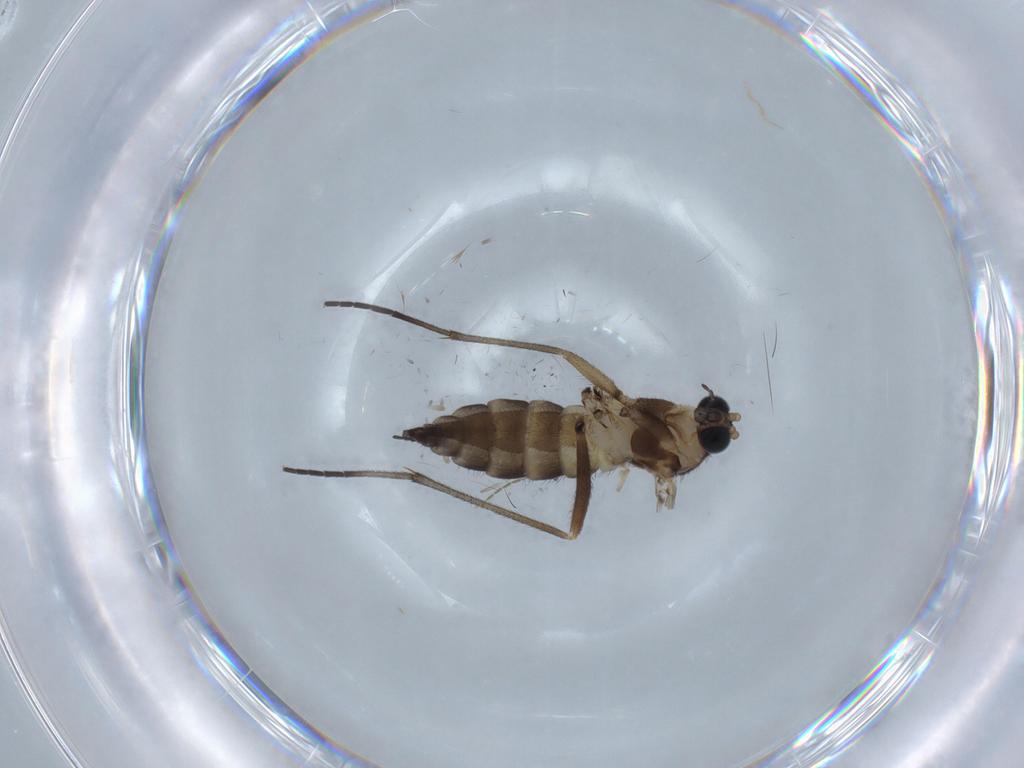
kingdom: Animalia
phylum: Arthropoda
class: Insecta
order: Diptera
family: Sciaridae
